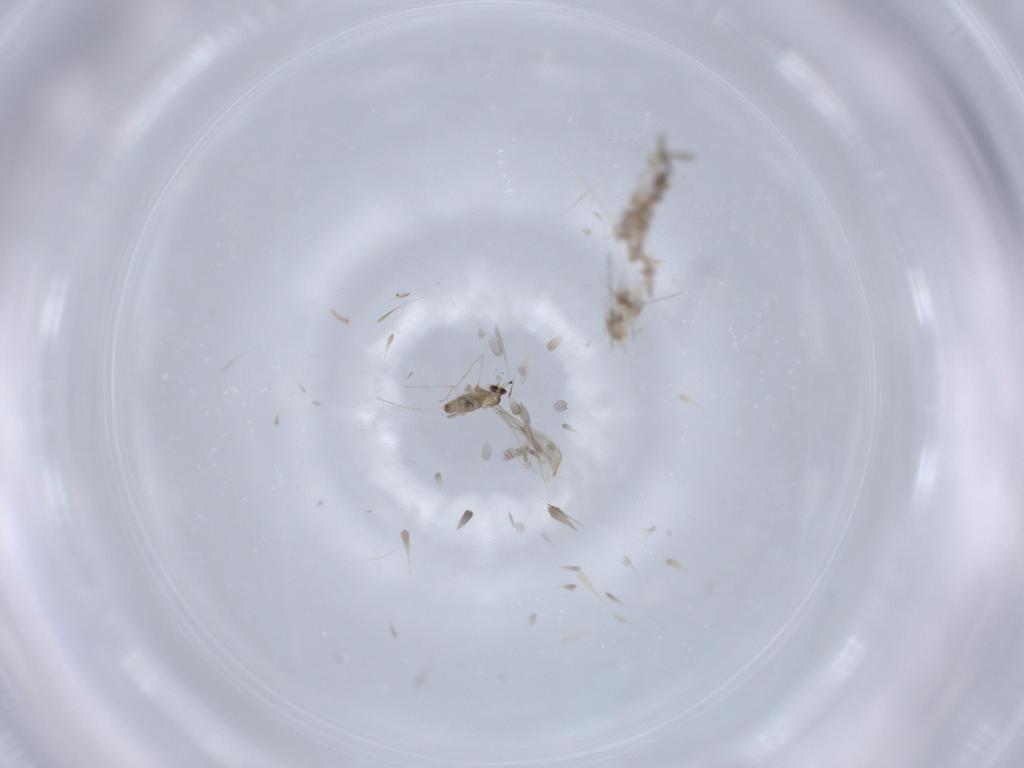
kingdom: Animalia
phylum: Arthropoda
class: Insecta
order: Diptera
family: Cecidomyiidae
